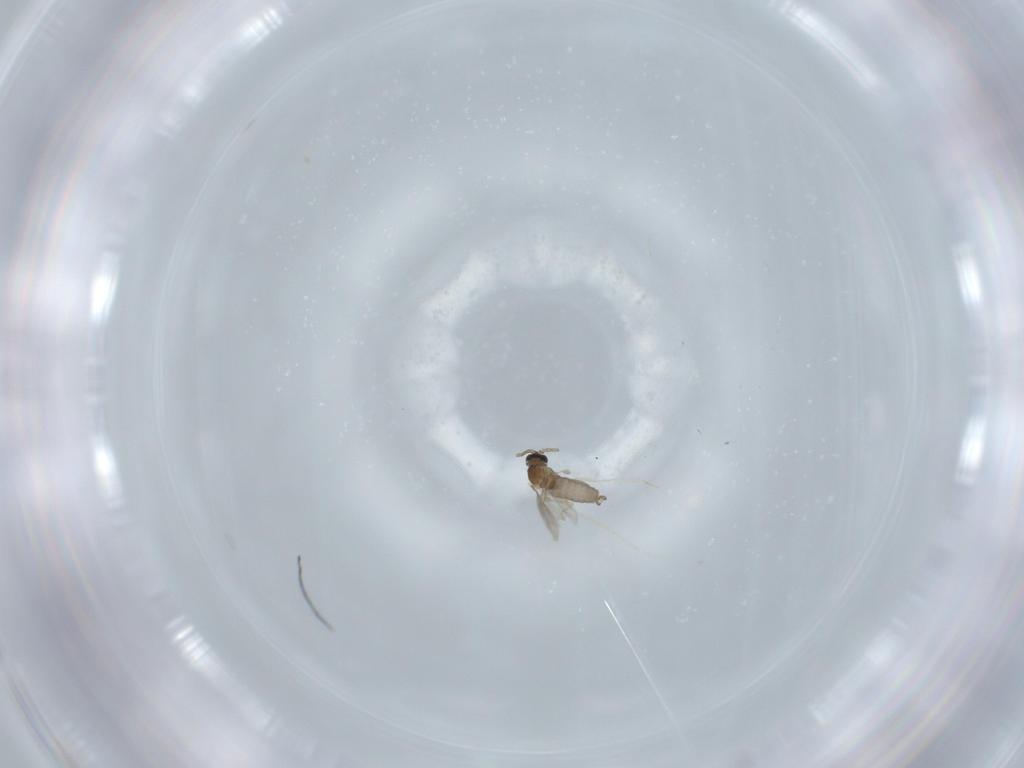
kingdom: Animalia
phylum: Arthropoda
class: Insecta
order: Diptera
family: Cecidomyiidae
